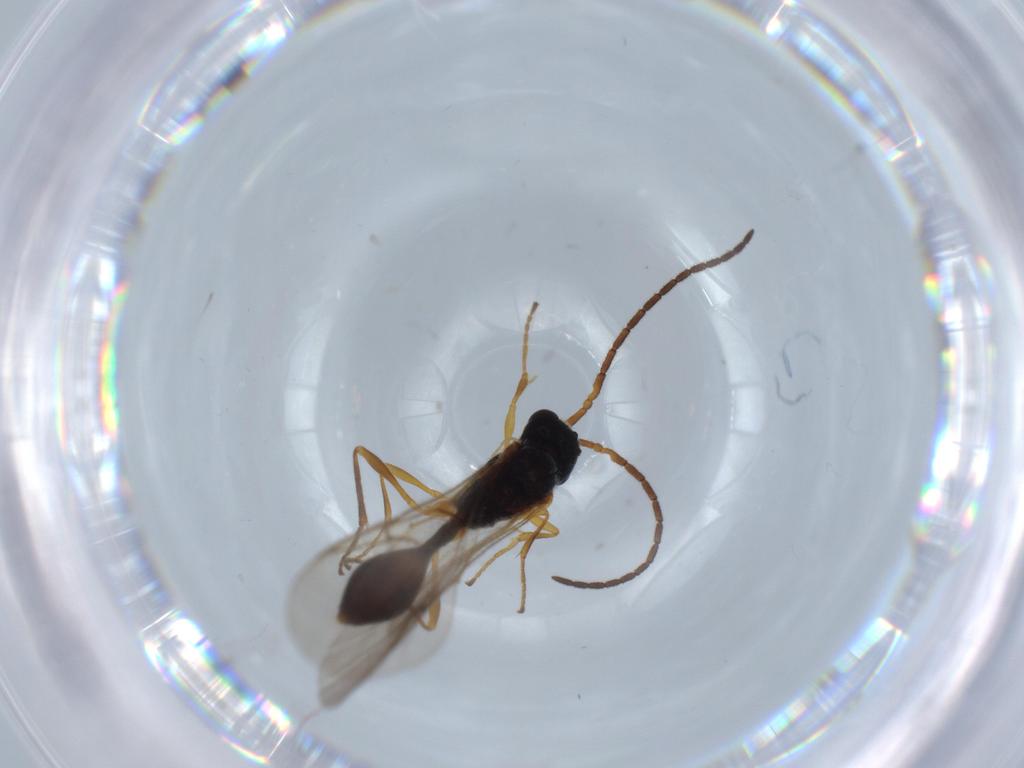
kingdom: Animalia
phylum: Arthropoda
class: Insecta
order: Hymenoptera
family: Diapriidae
